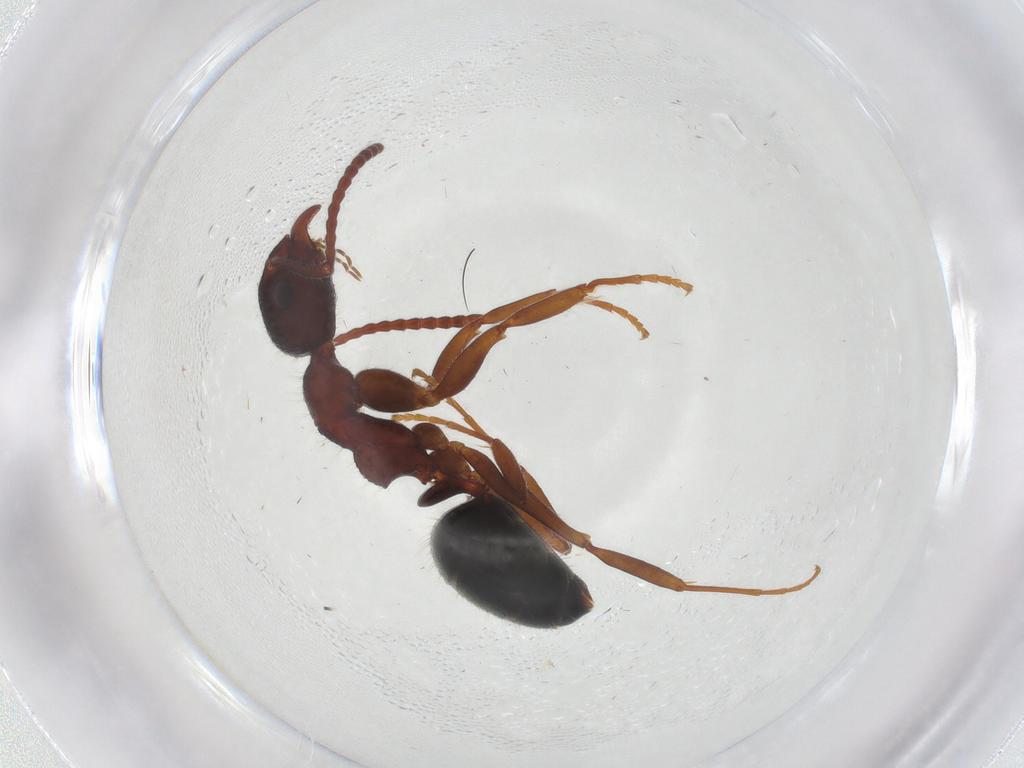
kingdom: Animalia
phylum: Arthropoda
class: Insecta
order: Hymenoptera
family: Formicidae
